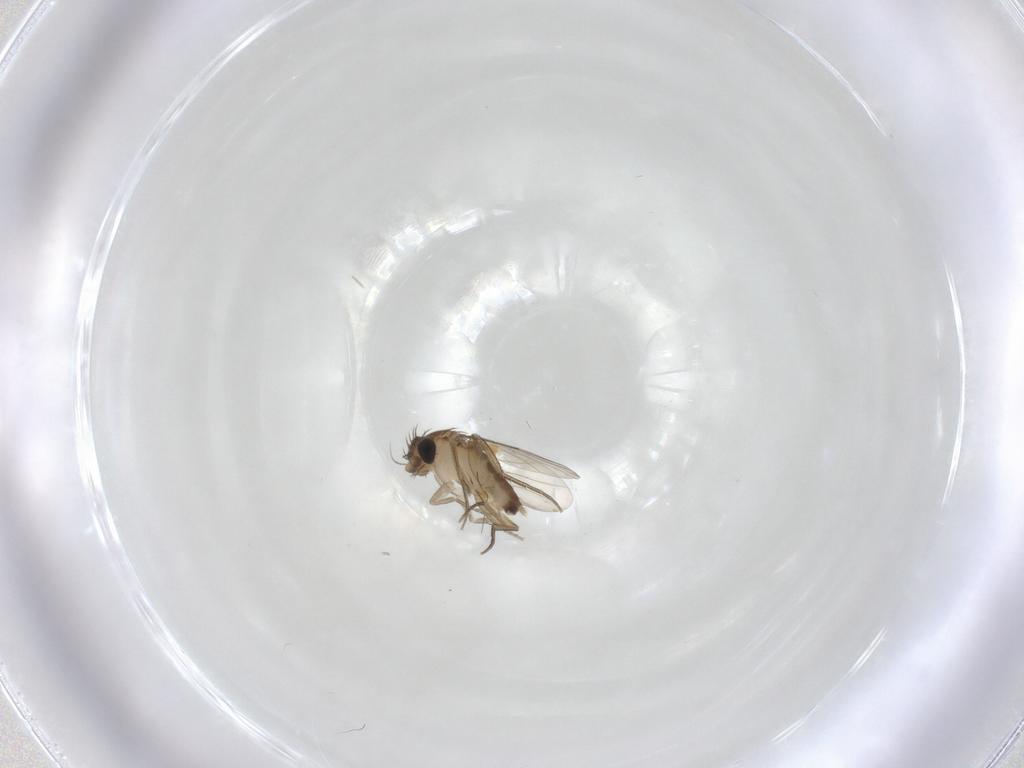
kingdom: Animalia
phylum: Arthropoda
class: Insecta
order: Diptera
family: Phoridae
